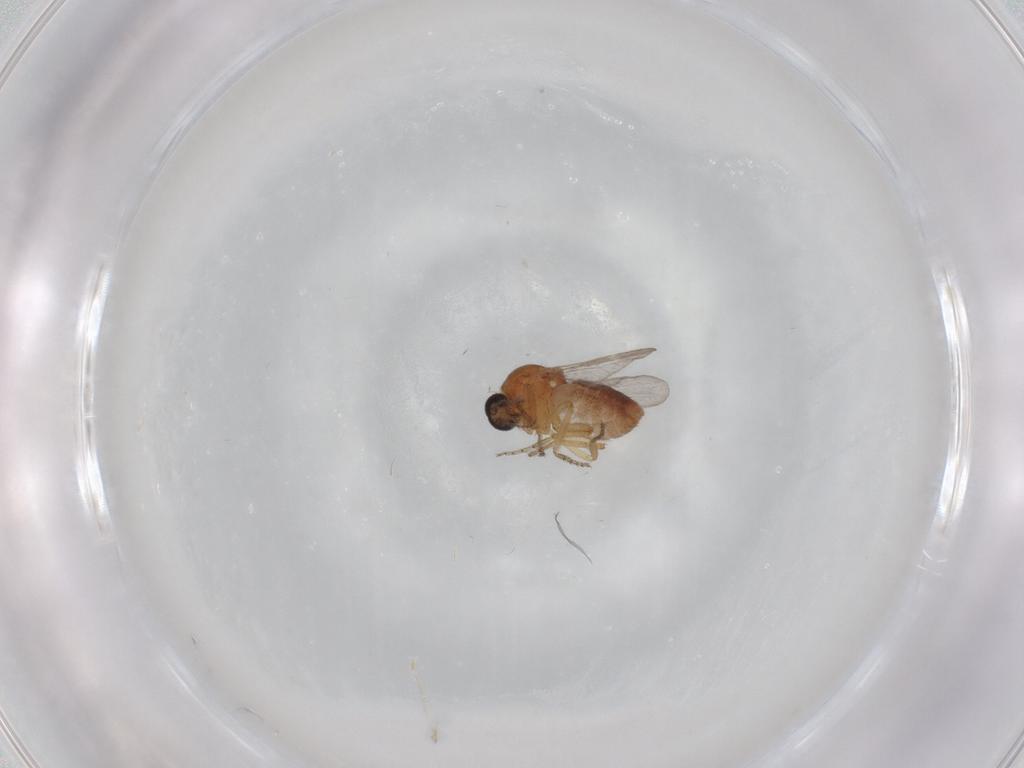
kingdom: Animalia
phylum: Arthropoda
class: Insecta
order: Diptera
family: Ceratopogonidae
